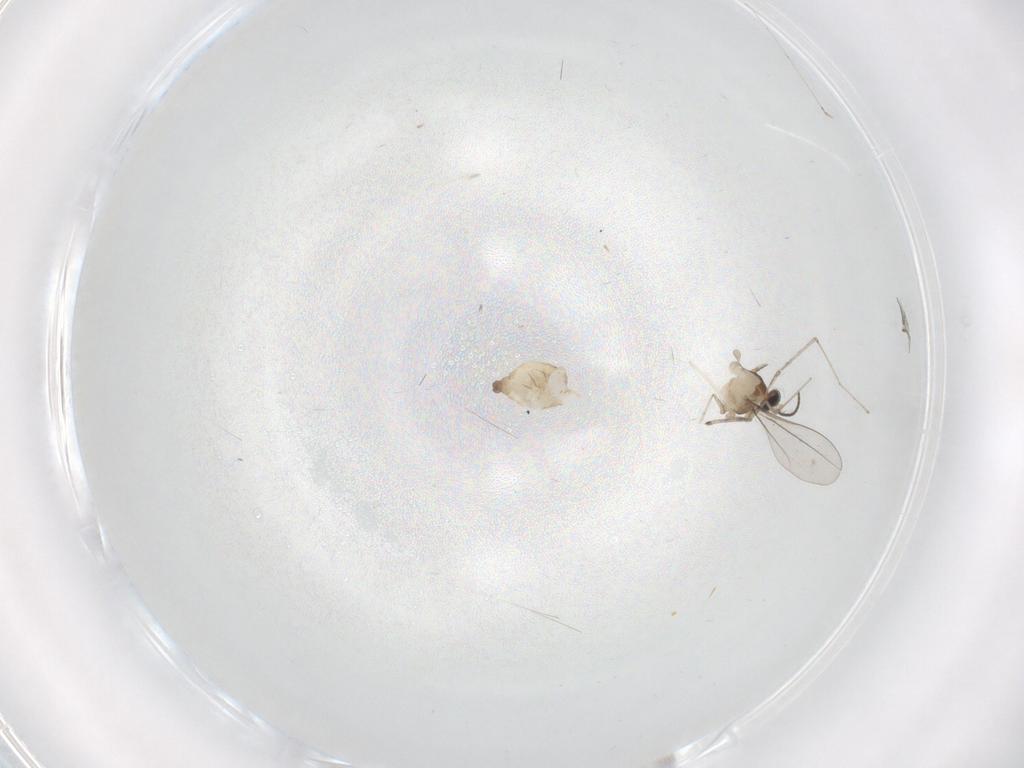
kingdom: Animalia
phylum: Arthropoda
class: Insecta
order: Diptera
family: Cecidomyiidae
